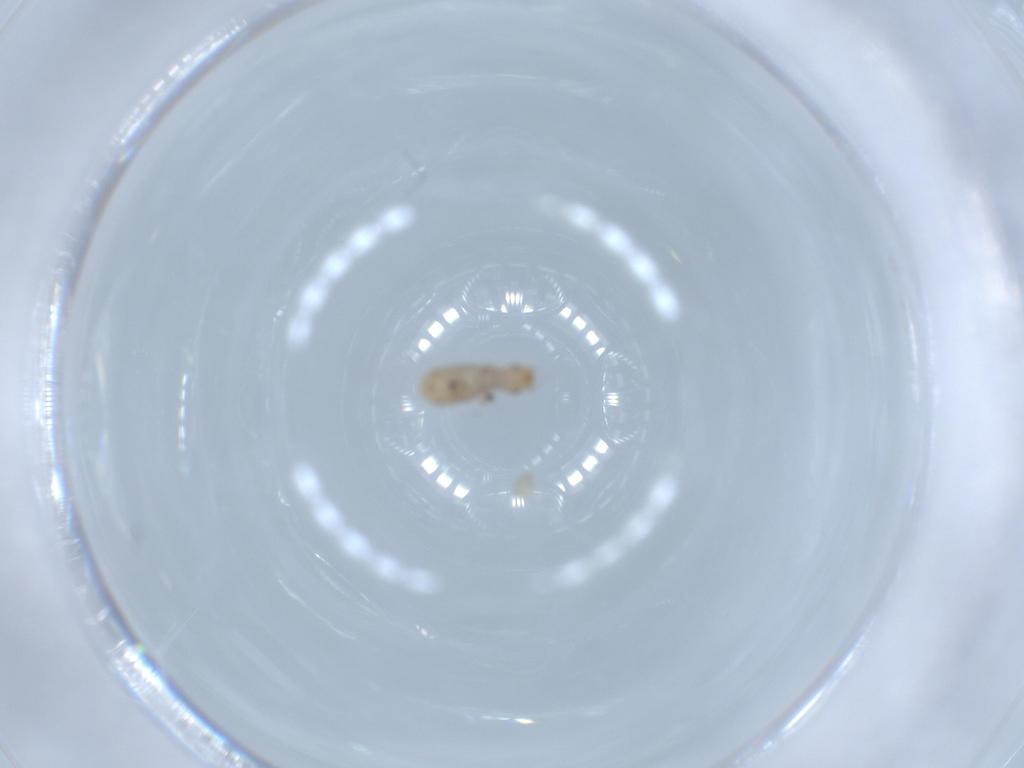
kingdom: Animalia
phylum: Arthropoda
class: Insecta
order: Psocodea
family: Liposcelididae
